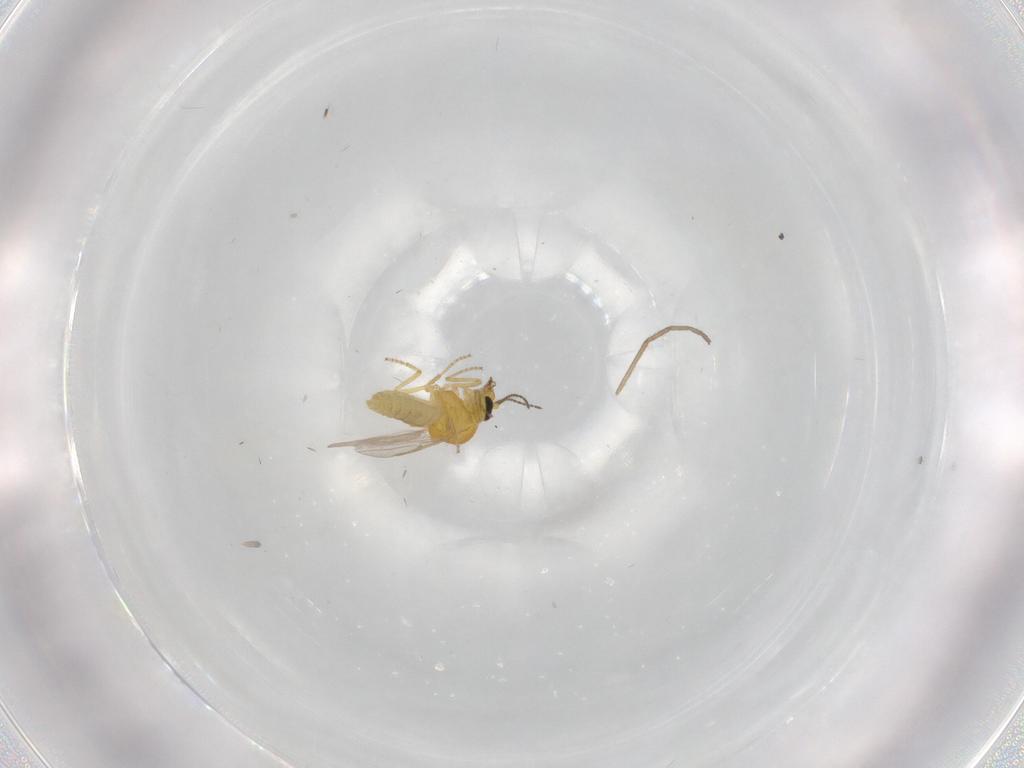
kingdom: Animalia
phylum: Arthropoda
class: Insecta
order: Diptera
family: Ceratopogonidae
